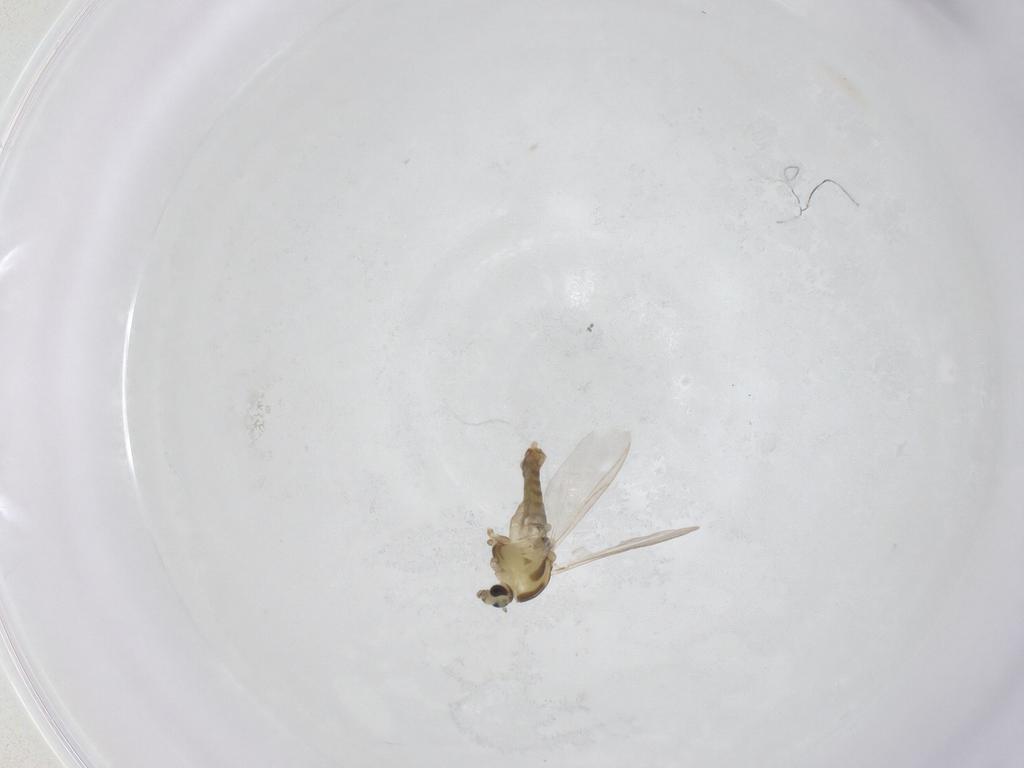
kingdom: Animalia
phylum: Arthropoda
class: Insecta
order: Diptera
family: Chironomidae
